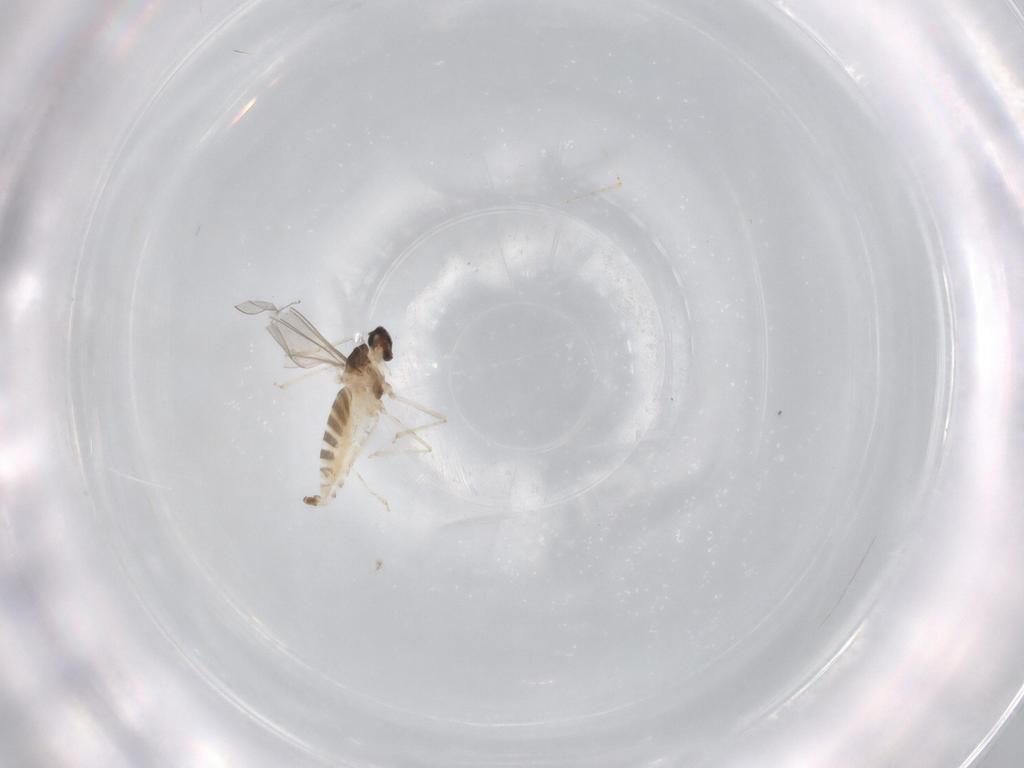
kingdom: Animalia
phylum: Arthropoda
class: Insecta
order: Diptera
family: Cecidomyiidae
